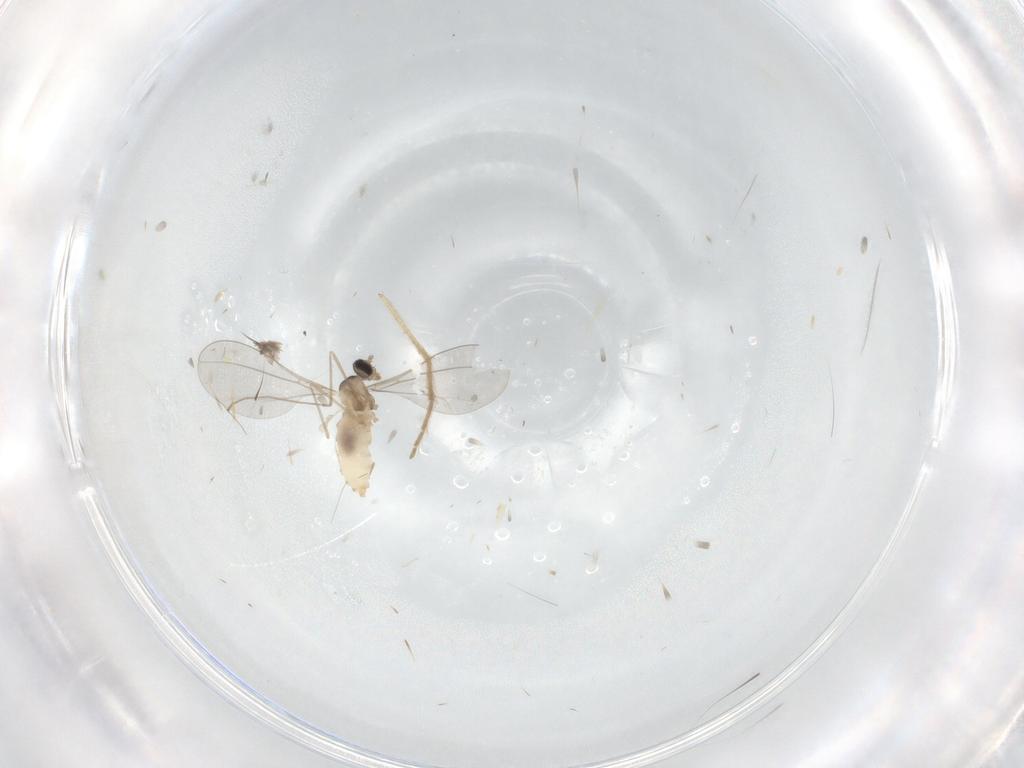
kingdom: Animalia
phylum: Arthropoda
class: Insecta
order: Diptera
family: Cecidomyiidae
